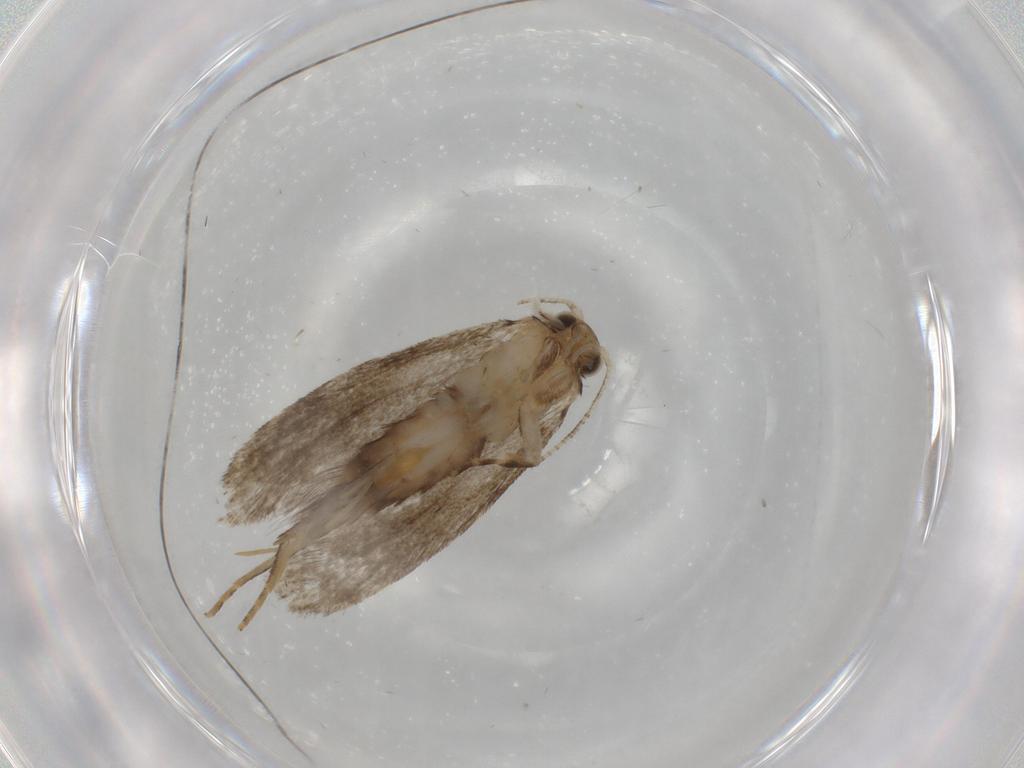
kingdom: Animalia
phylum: Arthropoda
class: Insecta
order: Lepidoptera
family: Tineidae
